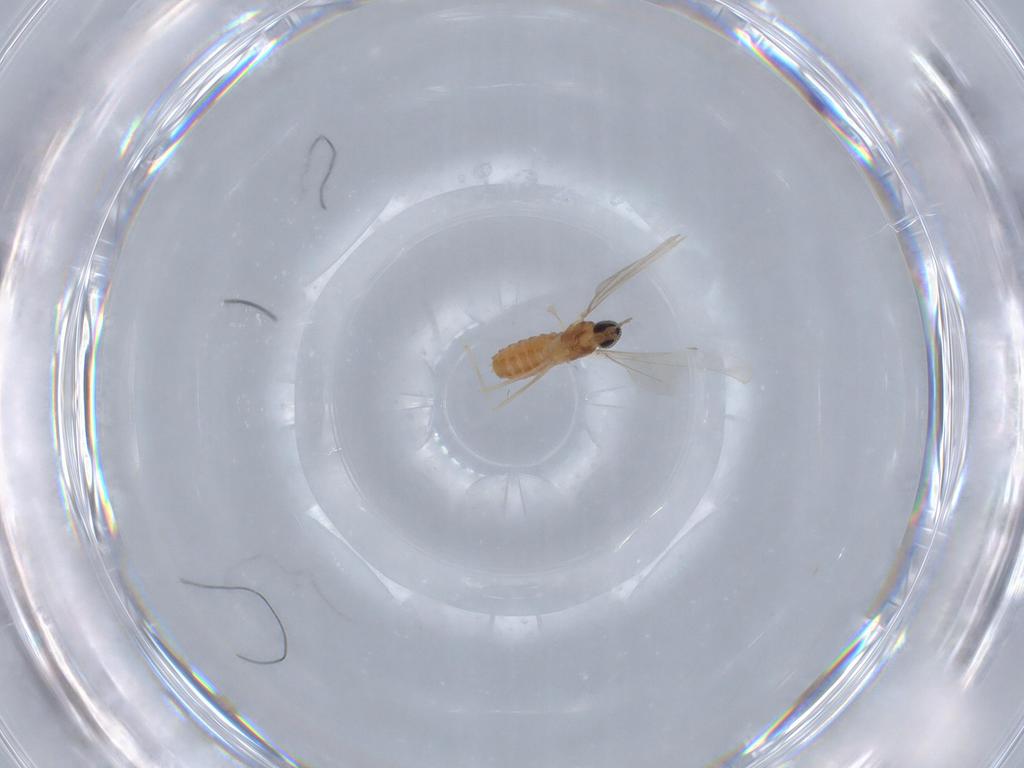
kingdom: Animalia
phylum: Arthropoda
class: Insecta
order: Diptera
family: Cecidomyiidae
